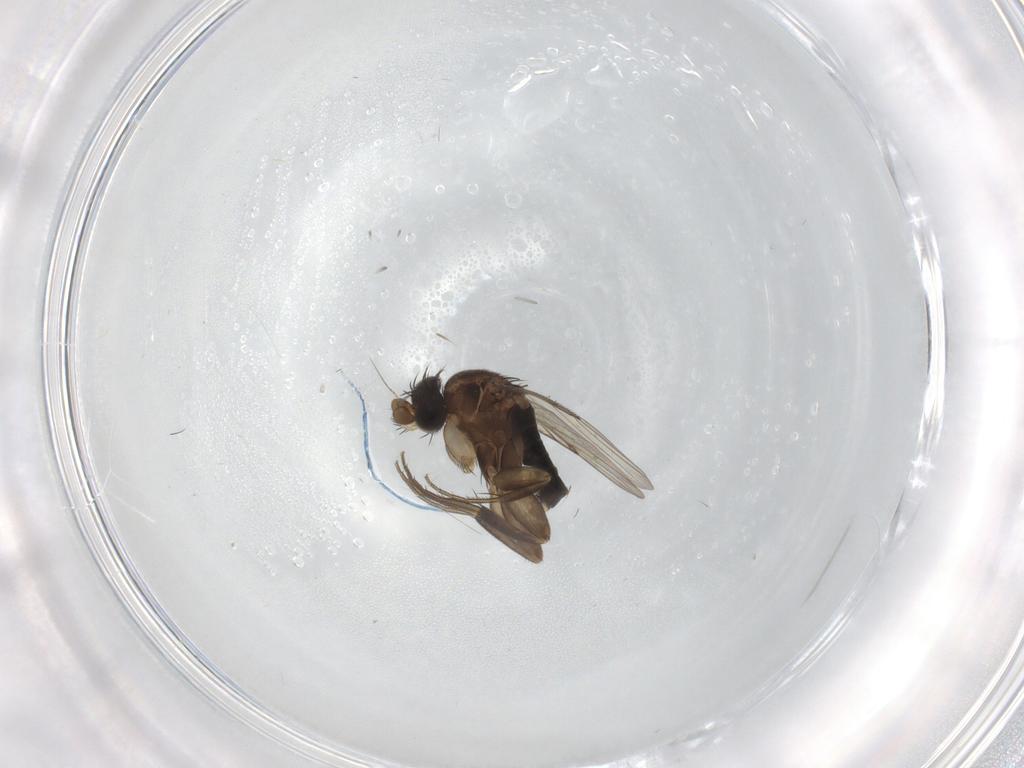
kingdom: Animalia
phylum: Arthropoda
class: Insecta
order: Diptera
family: Phoridae
